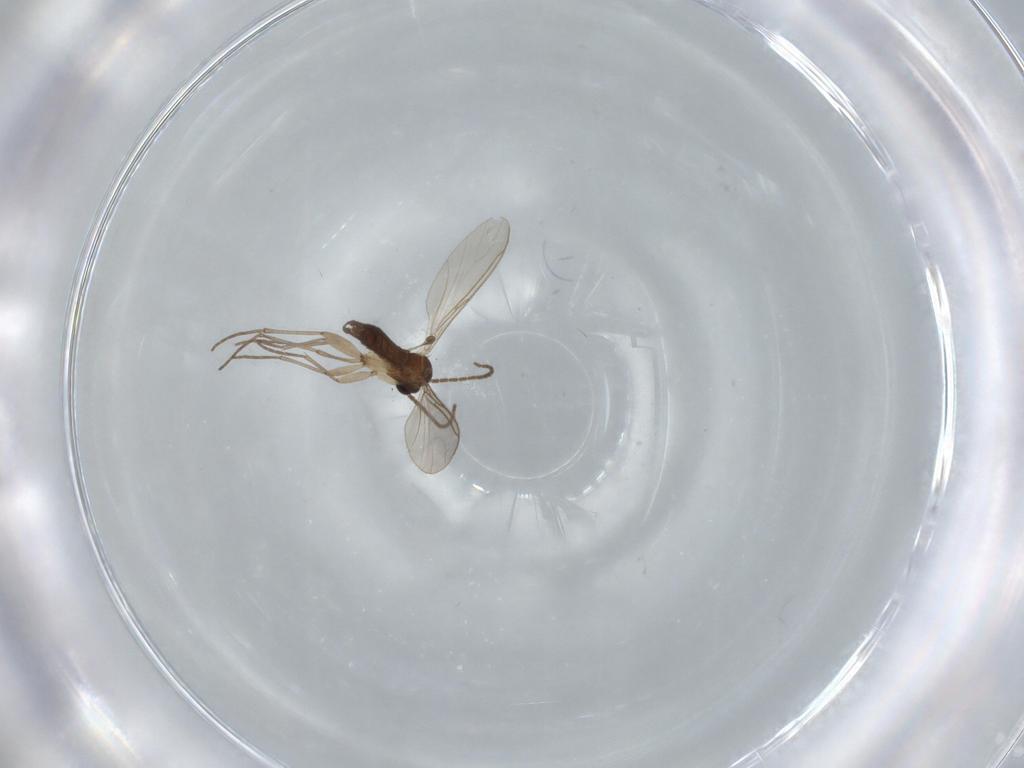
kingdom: Animalia
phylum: Arthropoda
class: Insecta
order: Diptera
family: Sciaridae
